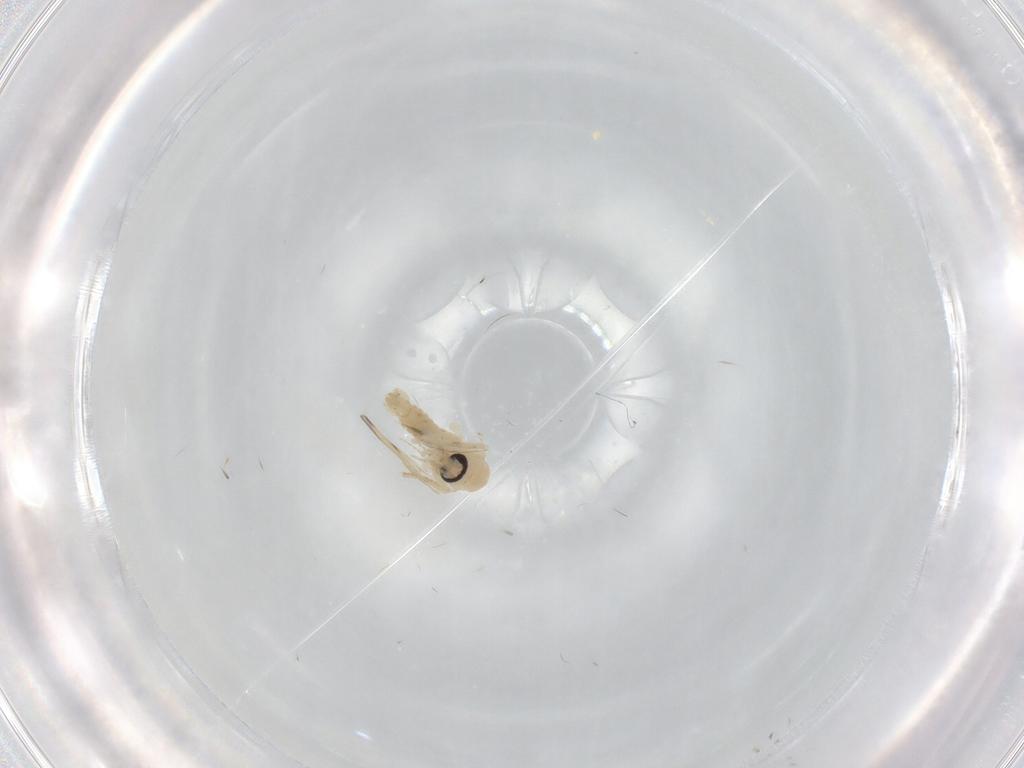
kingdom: Animalia
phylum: Arthropoda
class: Insecta
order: Diptera
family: Psychodidae
